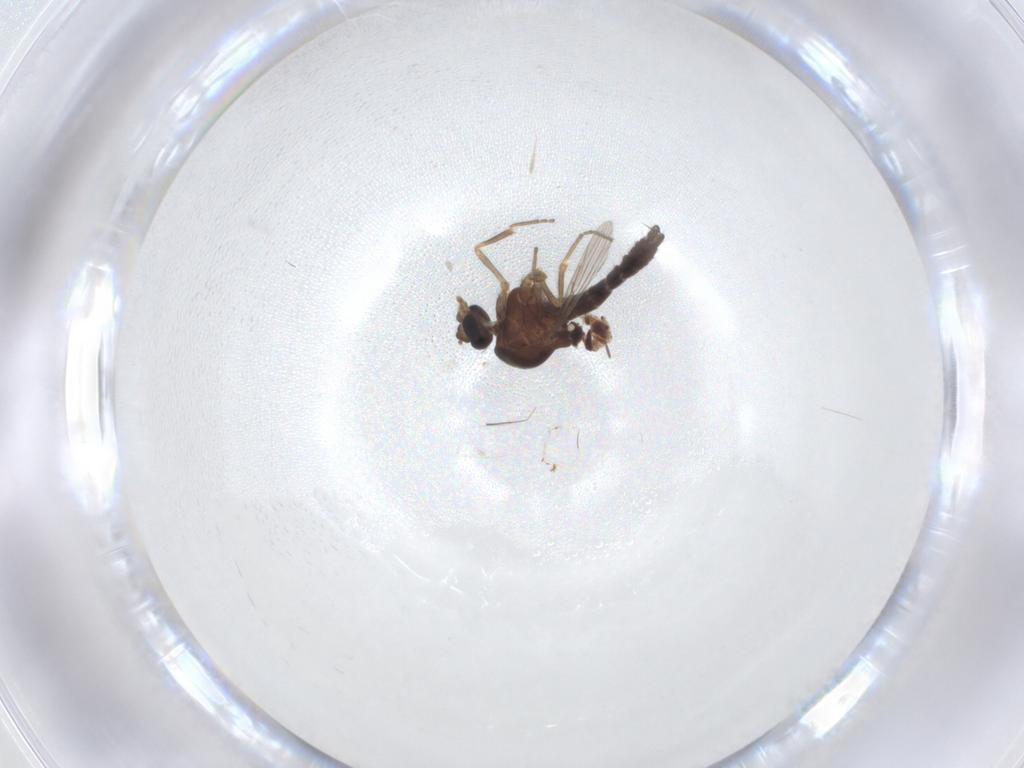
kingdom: Animalia
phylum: Arthropoda
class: Insecta
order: Diptera
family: Ceratopogonidae
